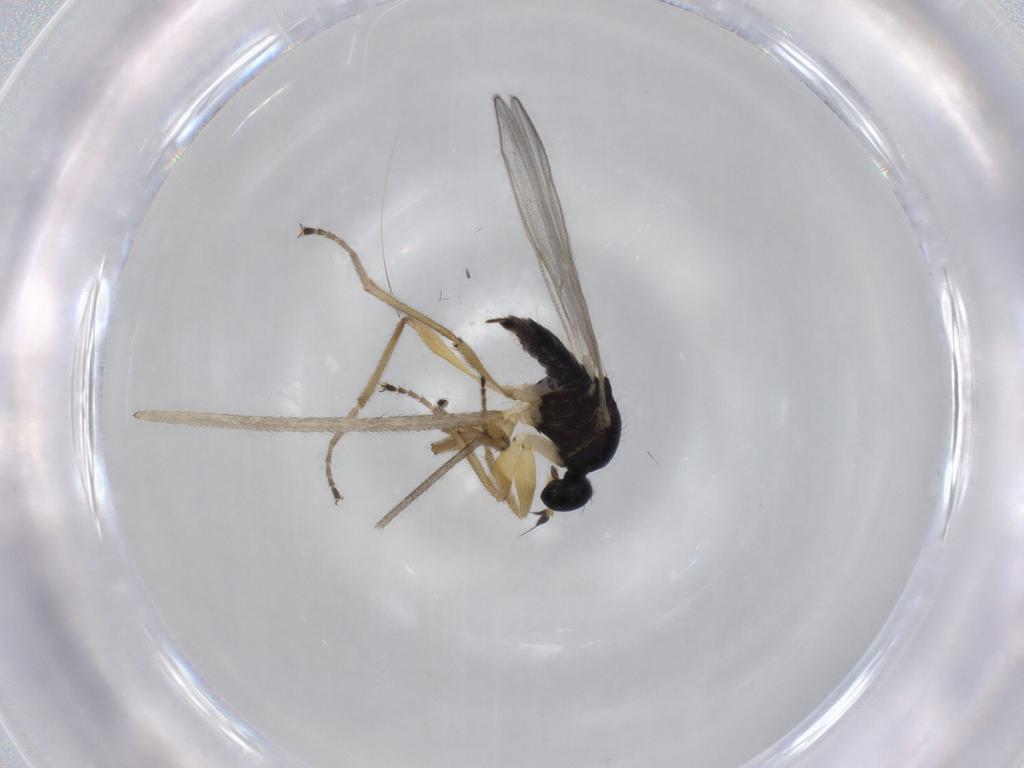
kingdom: Animalia
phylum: Arthropoda
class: Insecta
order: Diptera
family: Hybotidae
